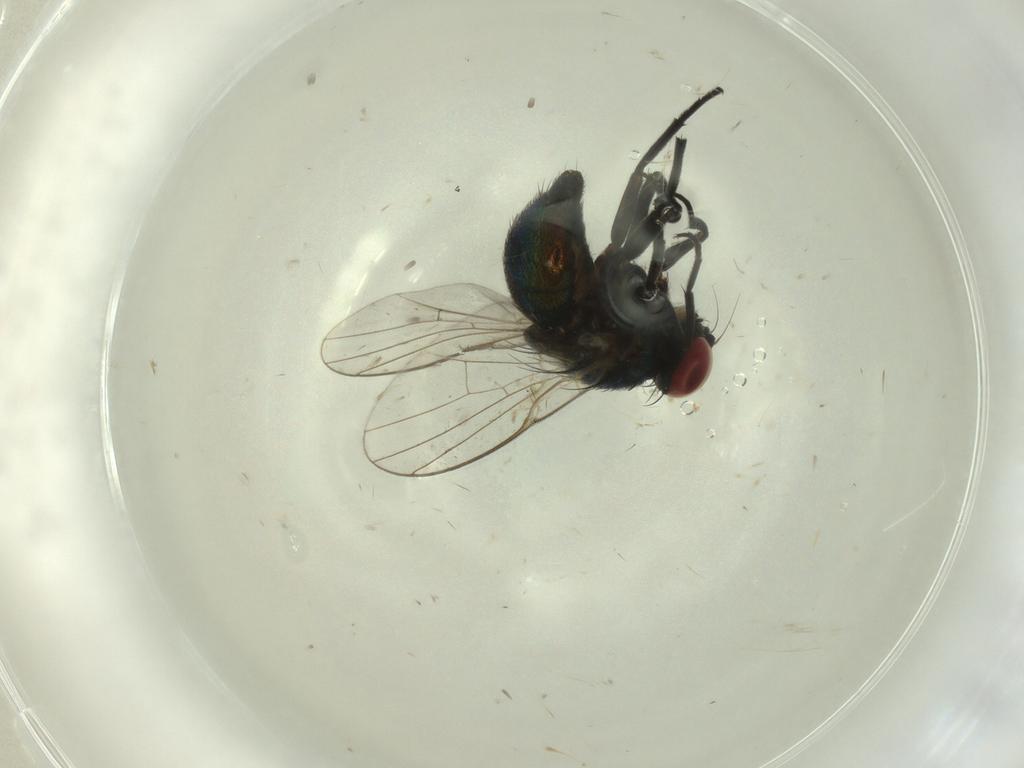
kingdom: Animalia
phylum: Arthropoda
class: Insecta
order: Diptera
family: Agromyzidae
